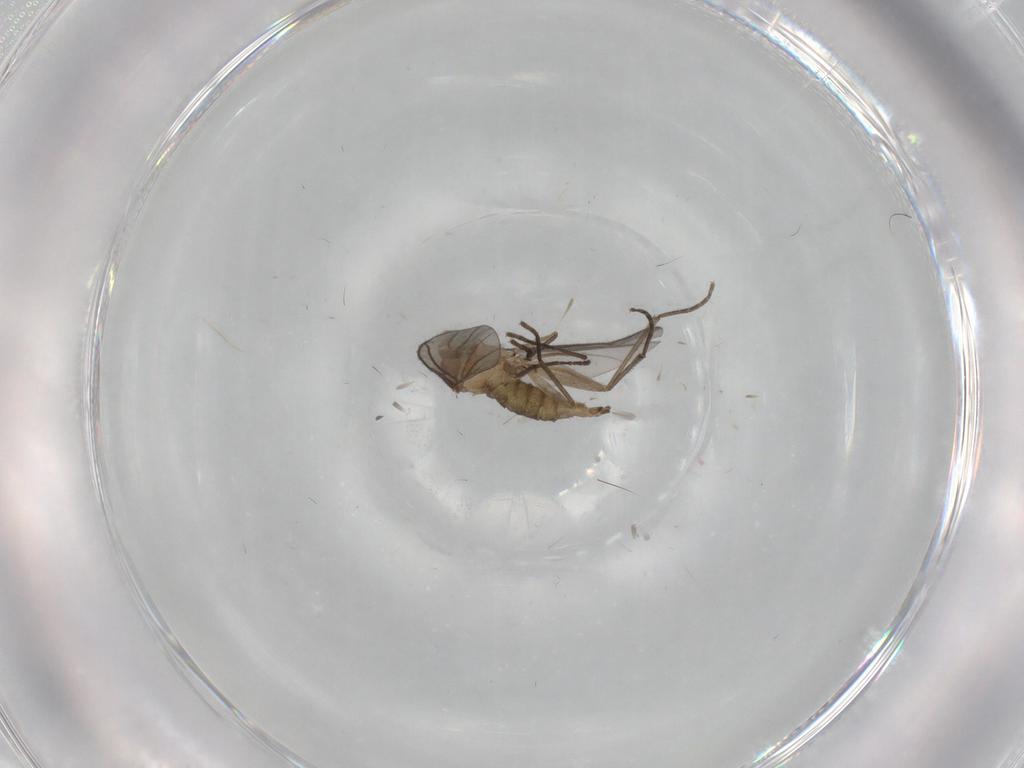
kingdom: Animalia
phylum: Arthropoda
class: Insecta
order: Diptera
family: Sciaridae
